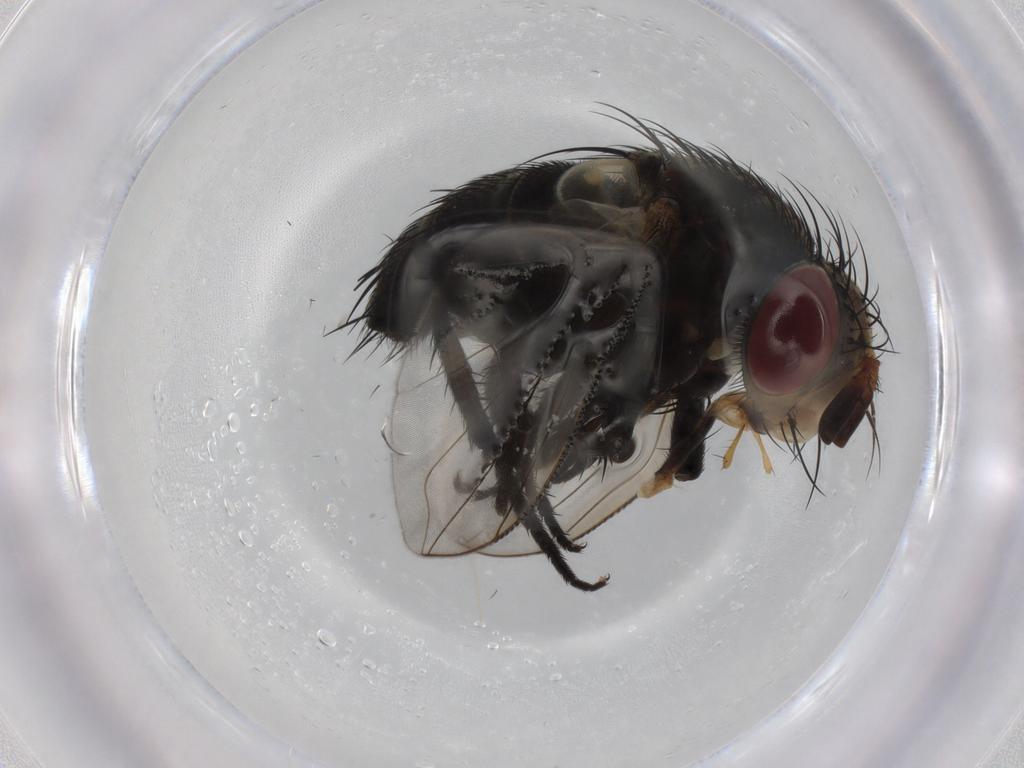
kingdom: Animalia
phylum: Arthropoda
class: Insecta
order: Diptera
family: Tachinidae
